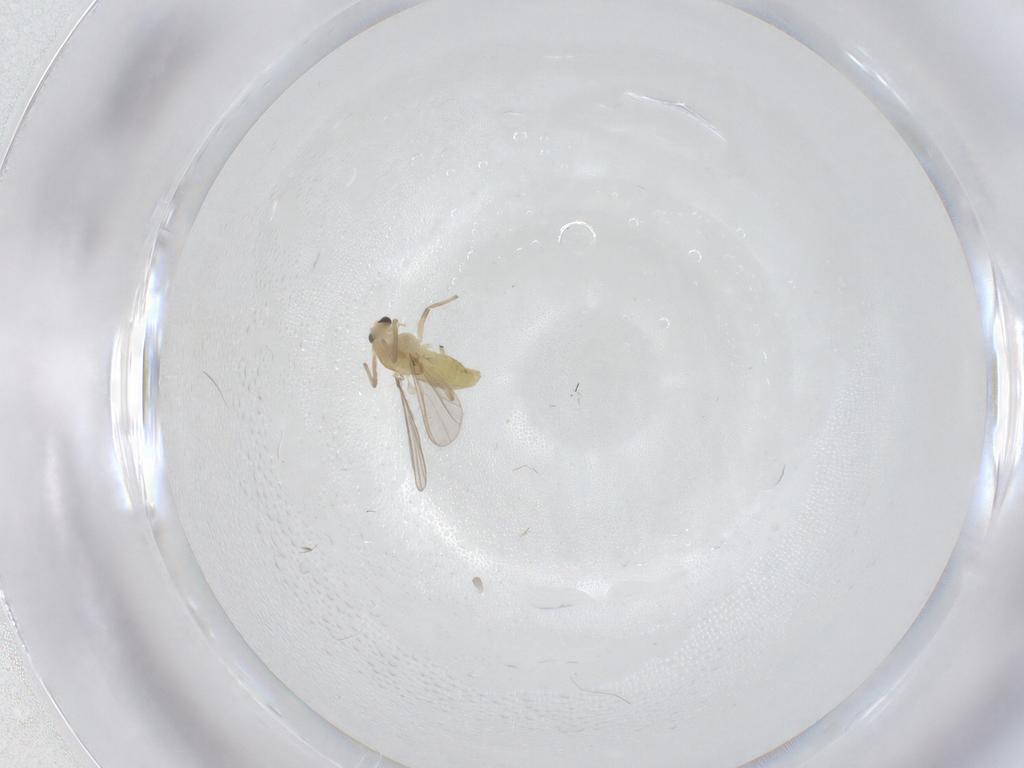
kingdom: Animalia
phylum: Arthropoda
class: Insecta
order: Diptera
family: Chironomidae
